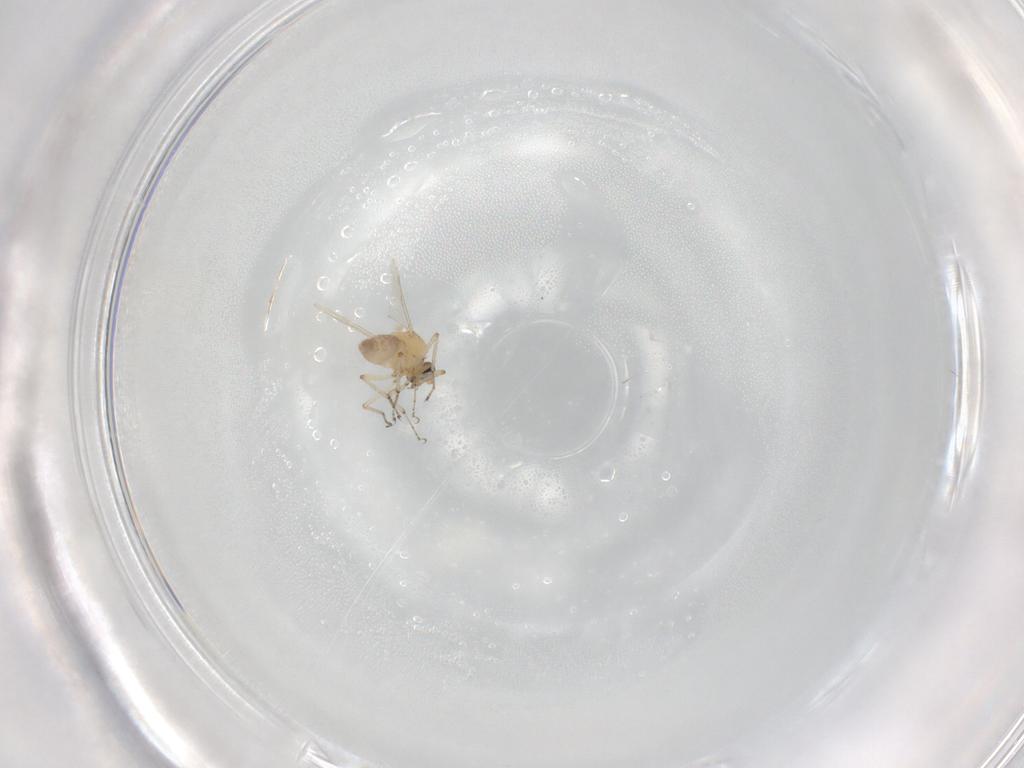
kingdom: Animalia
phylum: Arthropoda
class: Insecta
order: Diptera
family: Ceratopogonidae
